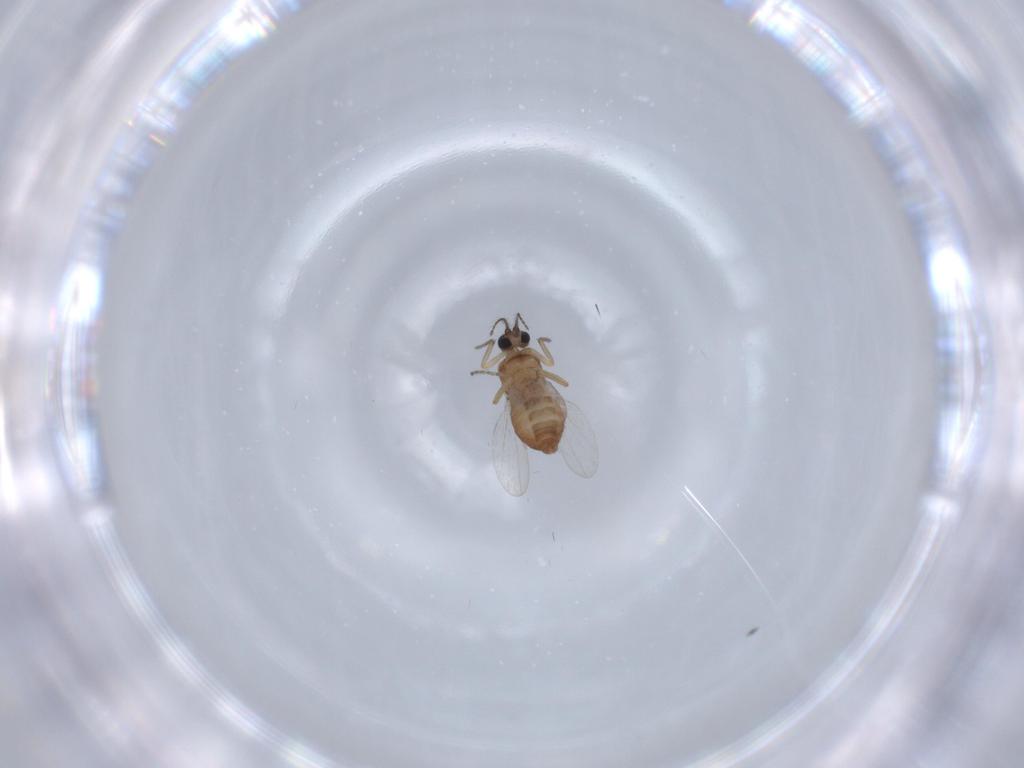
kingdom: Animalia
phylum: Arthropoda
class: Insecta
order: Diptera
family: Ceratopogonidae
